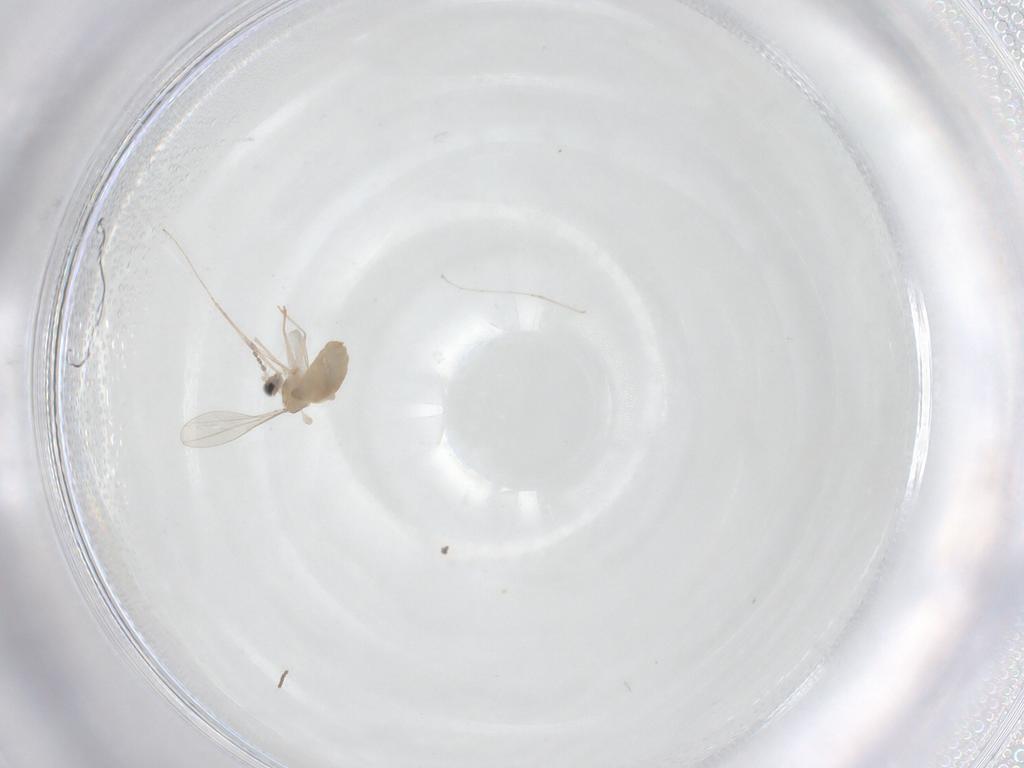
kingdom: Animalia
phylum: Arthropoda
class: Insecta
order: Diptera
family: Cecidomyiidae
